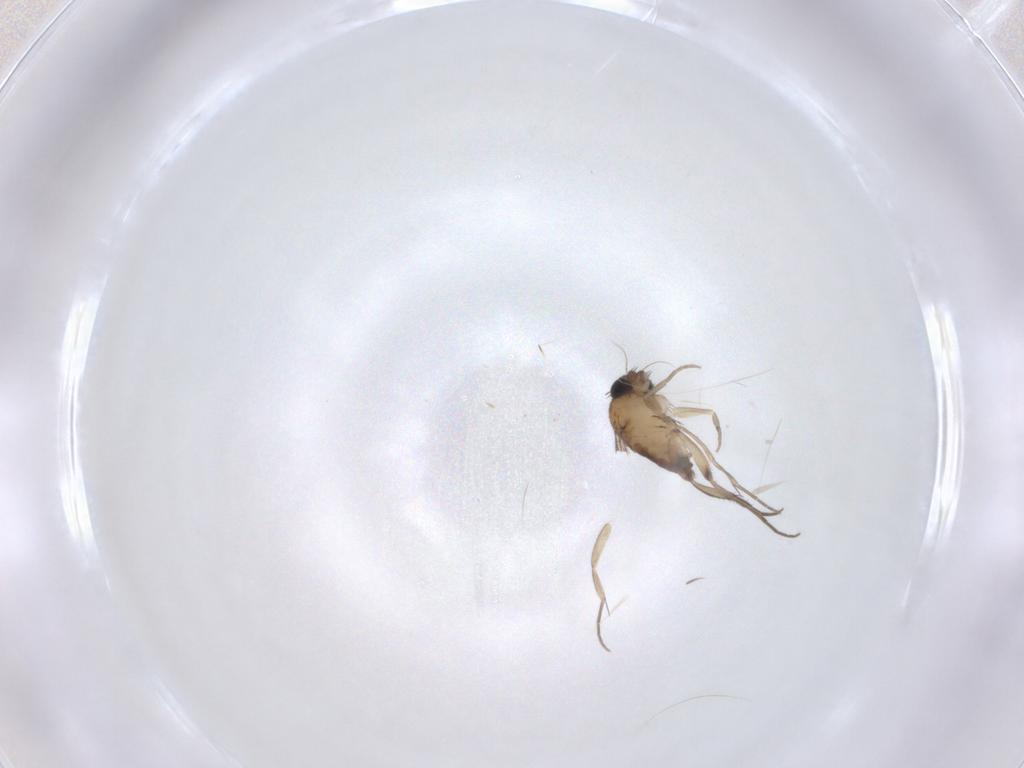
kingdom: Animalia
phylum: Arthropoda
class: Insecta
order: Diptera
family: Phoridae
